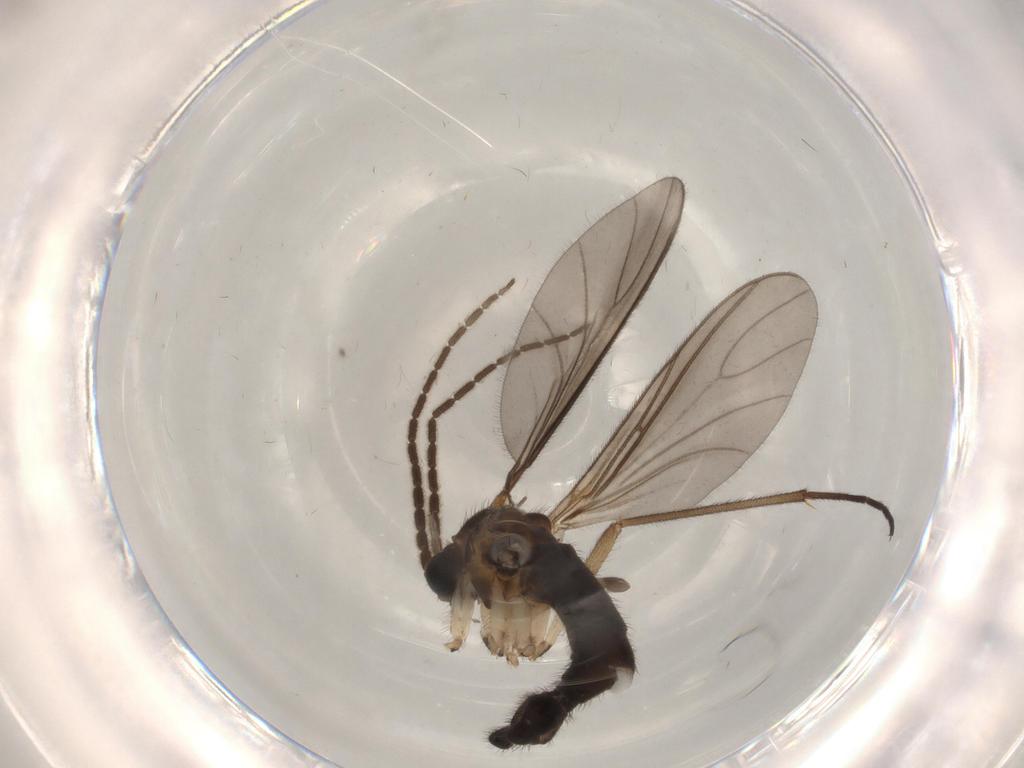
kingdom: Animalia
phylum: Arthropoda
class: Insecta
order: Diptera
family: Sciaridae
